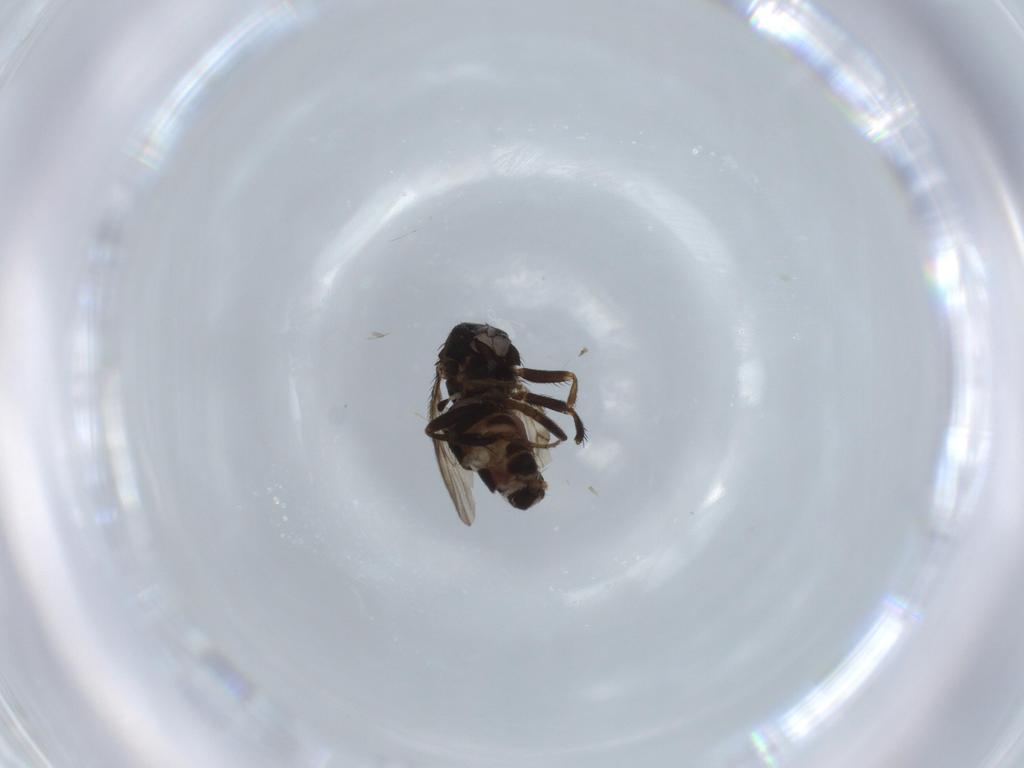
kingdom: Animalia
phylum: Arthropoda
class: Insecta
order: Diptera
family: Sphaeroceridae
